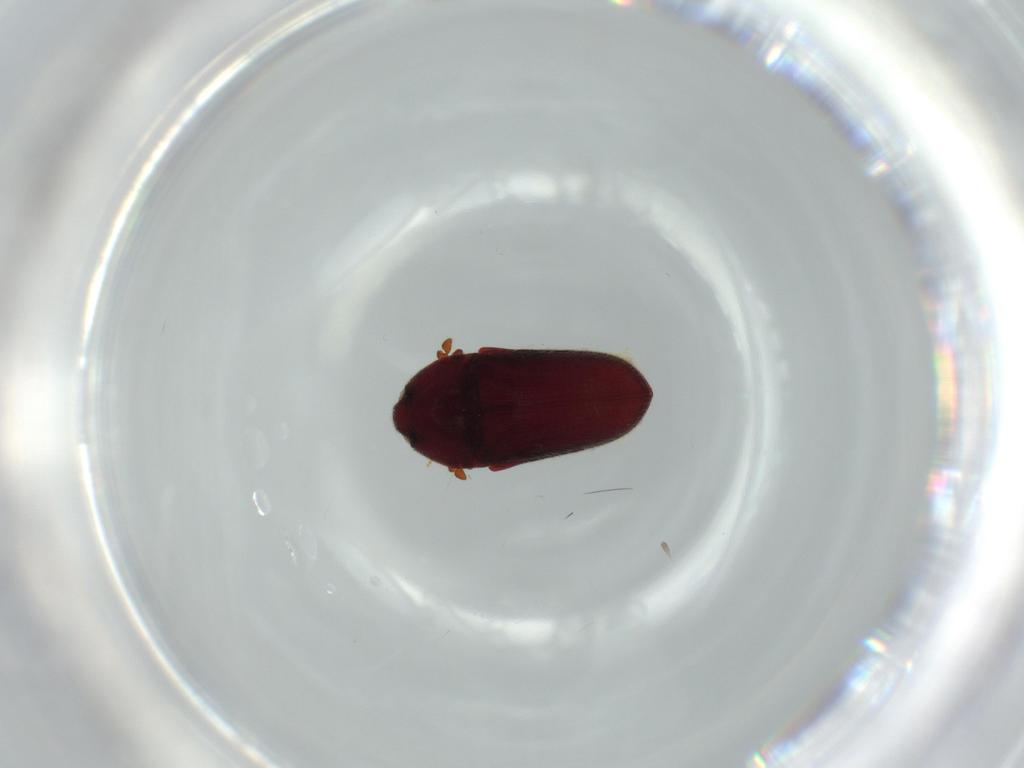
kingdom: Animalia
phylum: Arthropoda
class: Insecta
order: Coleoptera
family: Throscidae
